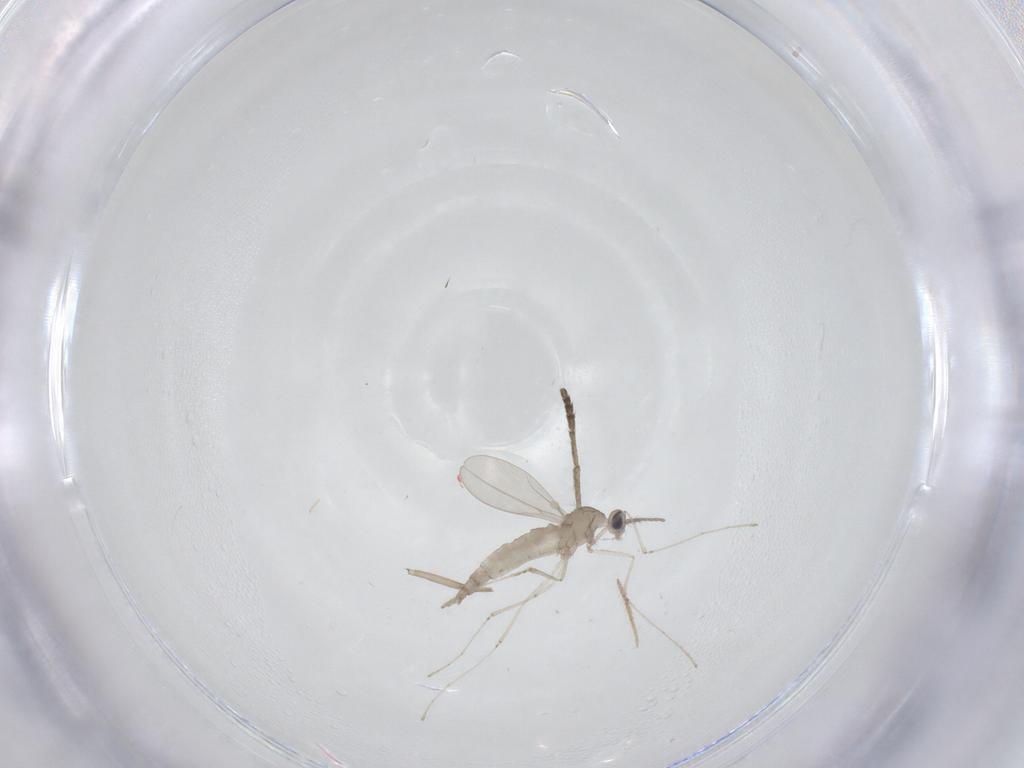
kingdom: Animalia
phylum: Arthropoda
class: Insecta
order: Diptera
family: Psychodidae
